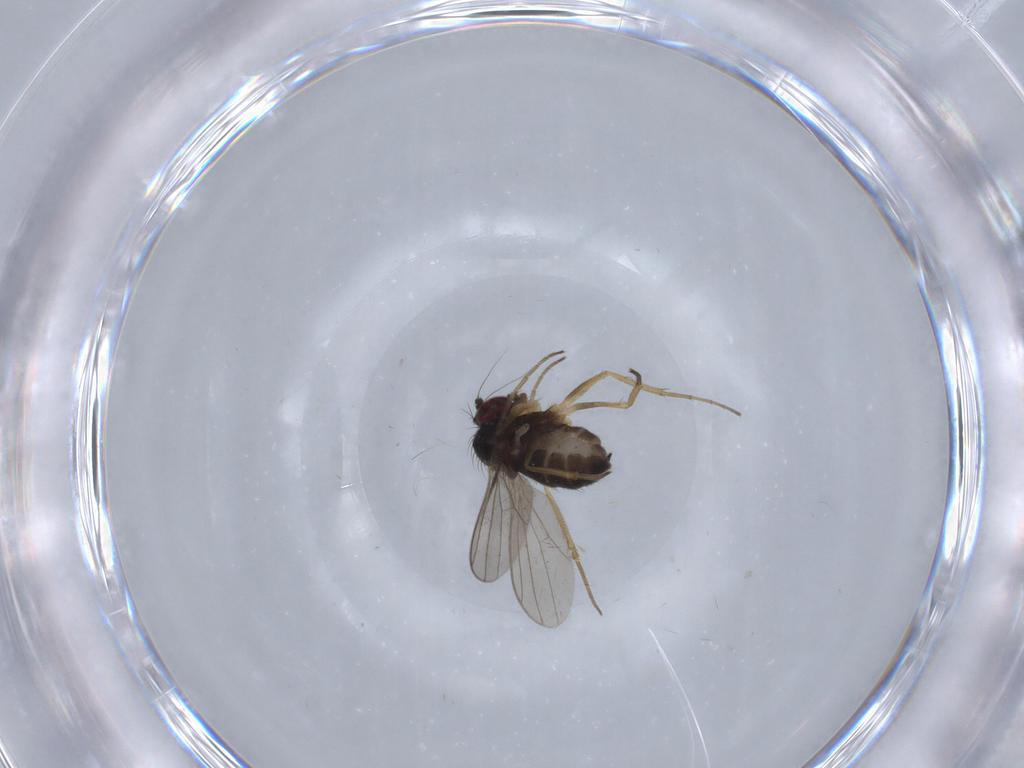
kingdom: Animalia
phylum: Arthropoda
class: Insecta
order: Diptera
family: Dolichopodidae
